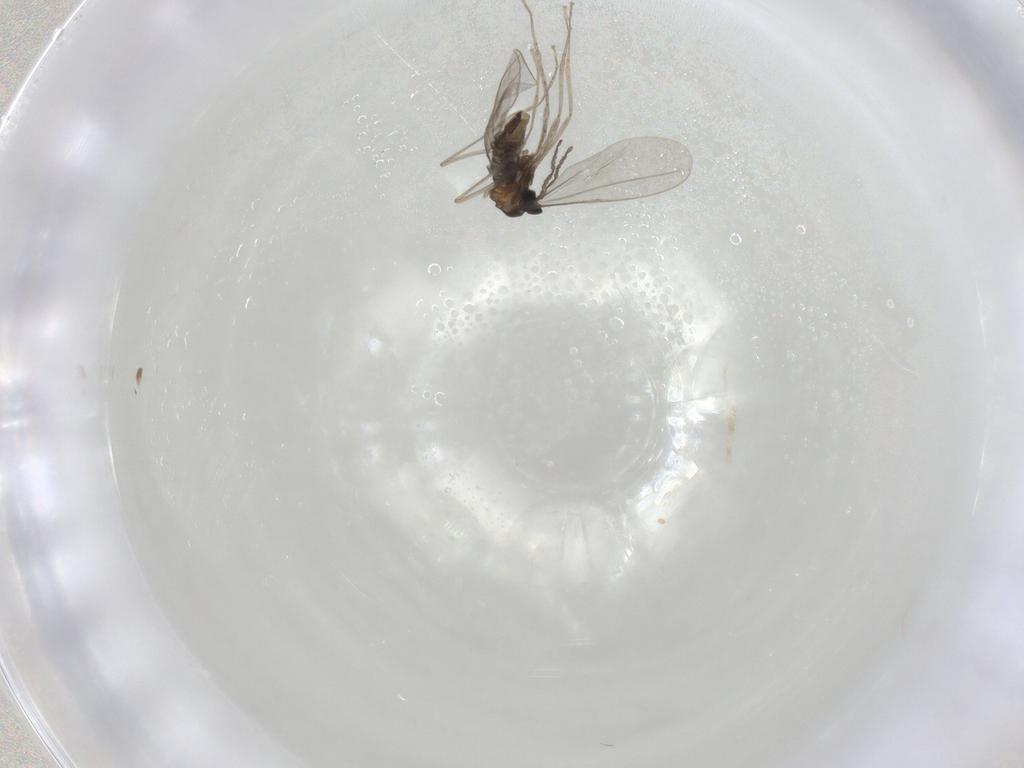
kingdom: Animalia
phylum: Arthropoda
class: Insecta
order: Diptera
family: Cecidomyiidae
